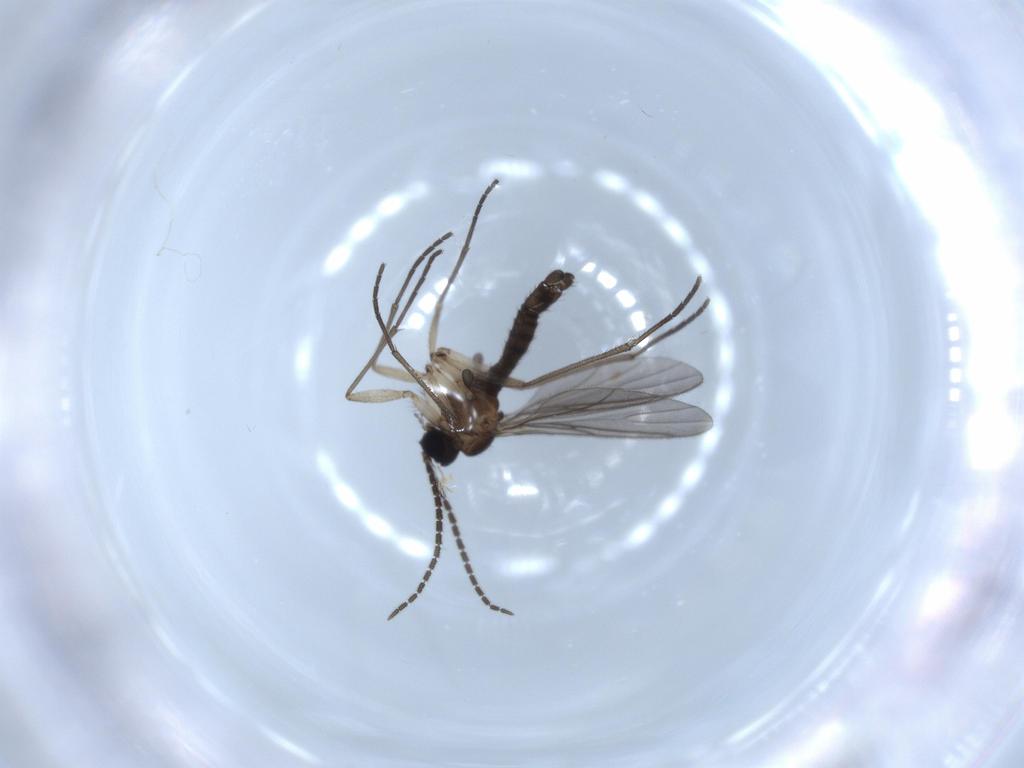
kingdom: Animalia
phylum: Arthropoda
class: Insecta
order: Diptera
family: Sciaridae
